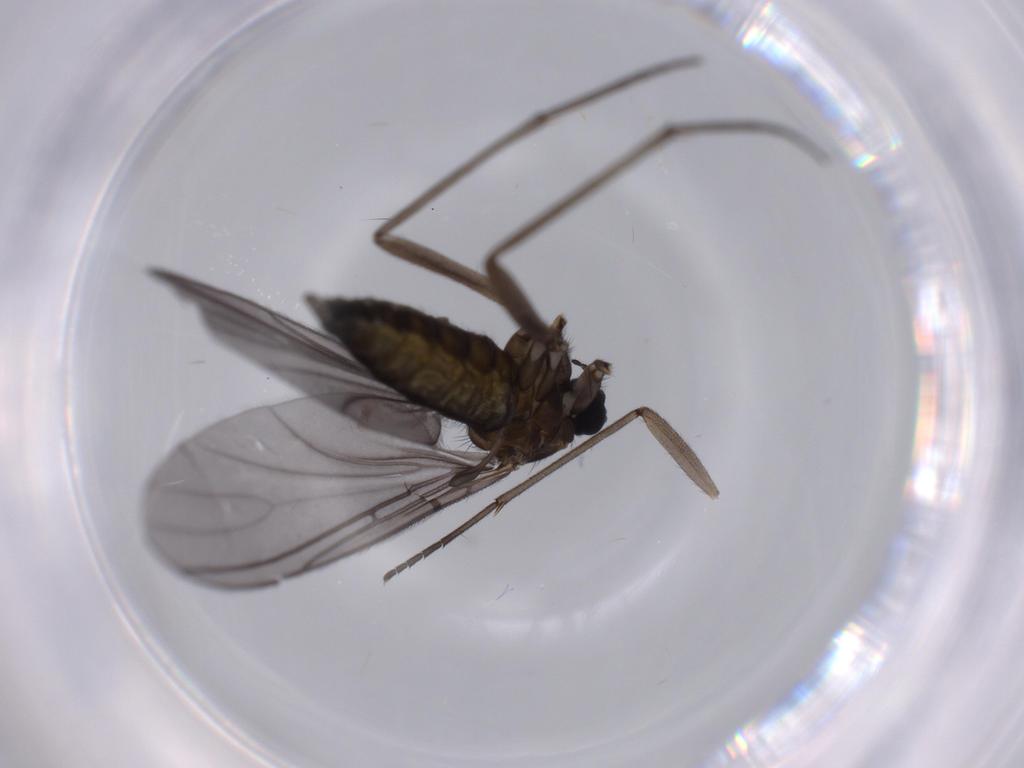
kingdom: Animalia
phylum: Arthropoda
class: Insecta
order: Diptera
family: Sciaridae
